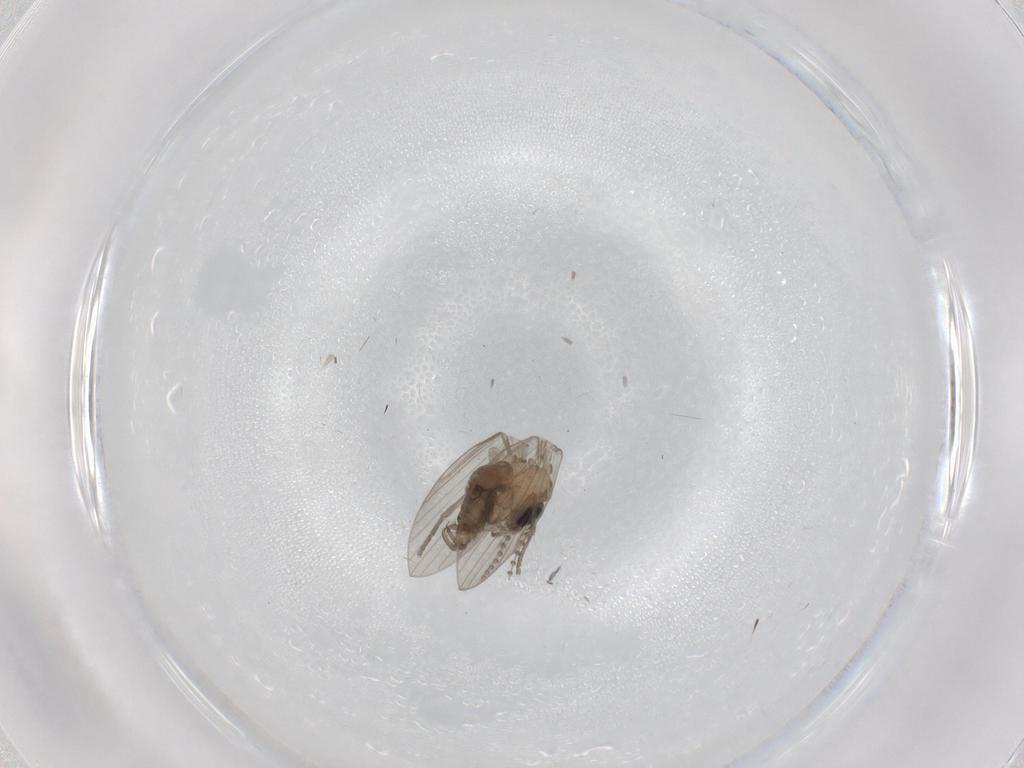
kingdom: Animalia
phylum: Arthropoda
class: Insecta
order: Diptera
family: Psychodidae
